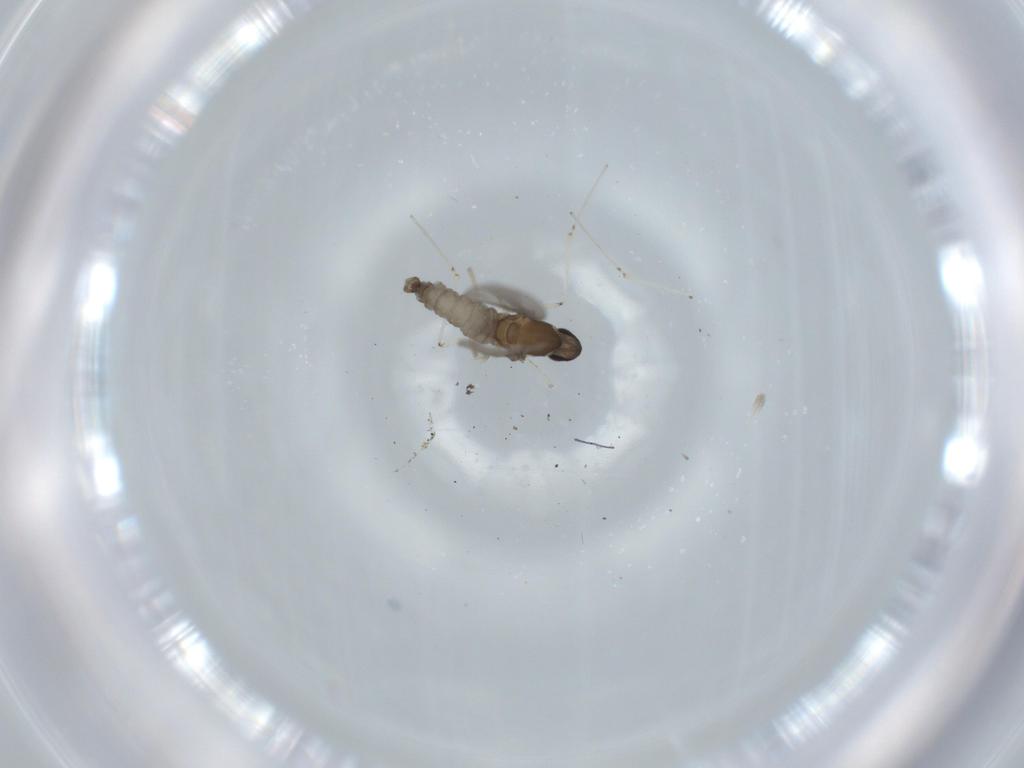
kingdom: Animalia
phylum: Arthropoda
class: Insecta
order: Diptera
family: Cecidomyiidae
